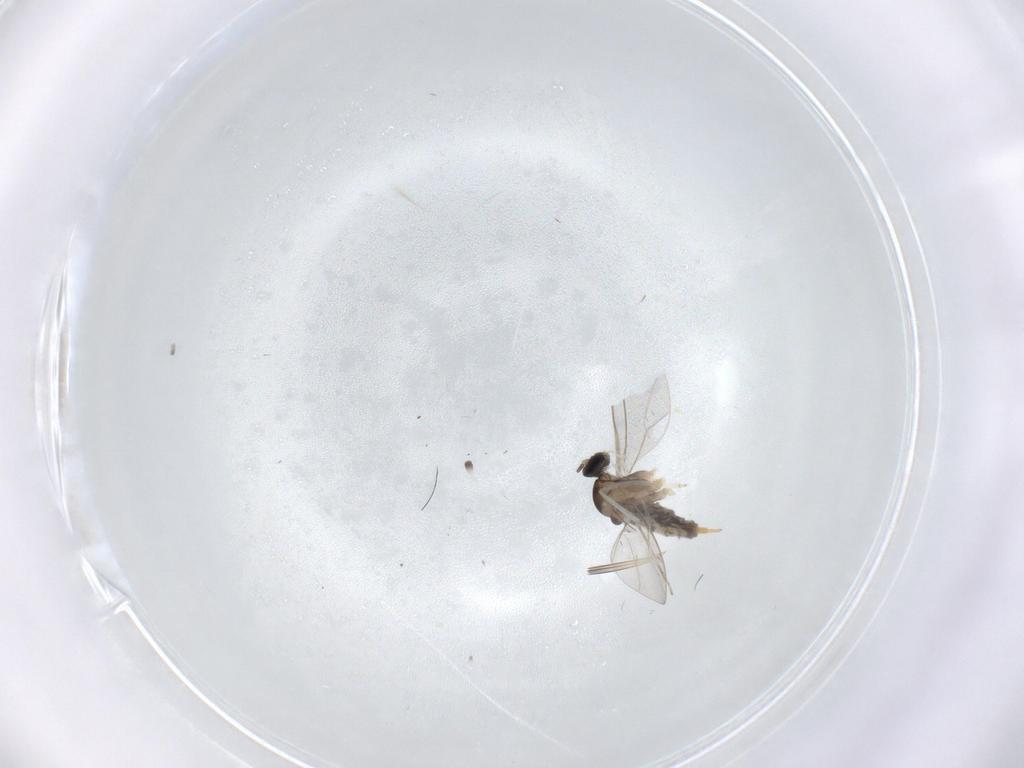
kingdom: Animalia
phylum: Arthropoda
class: Insecta
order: Diptera
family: Cecidomyiidae
